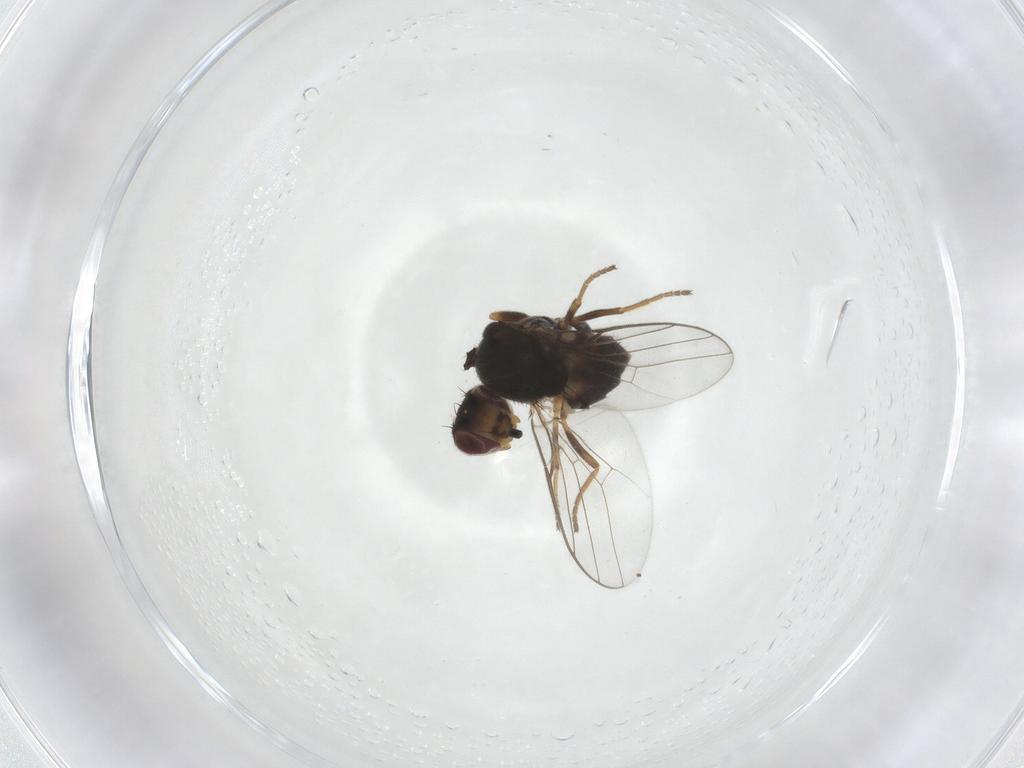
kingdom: Animalia
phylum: Arthropoda
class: Insecta
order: Diptera
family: Chloropidae
